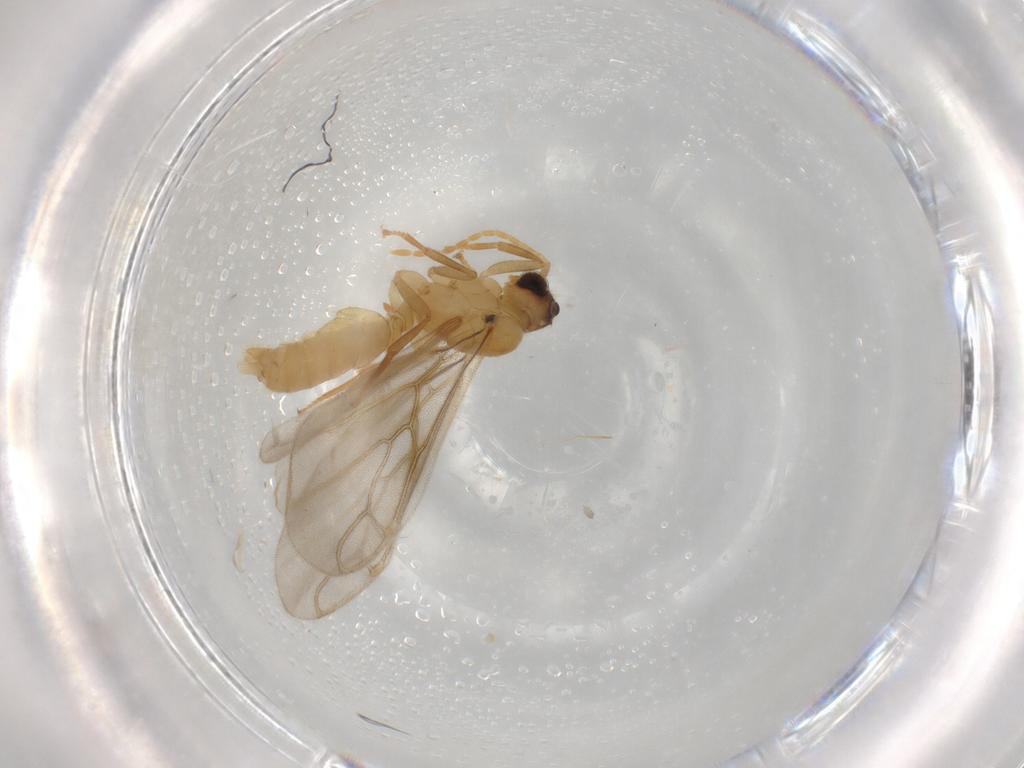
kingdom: Animalia
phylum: Arthropoda
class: Insecta
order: Hymenoptera
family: Formicidae
